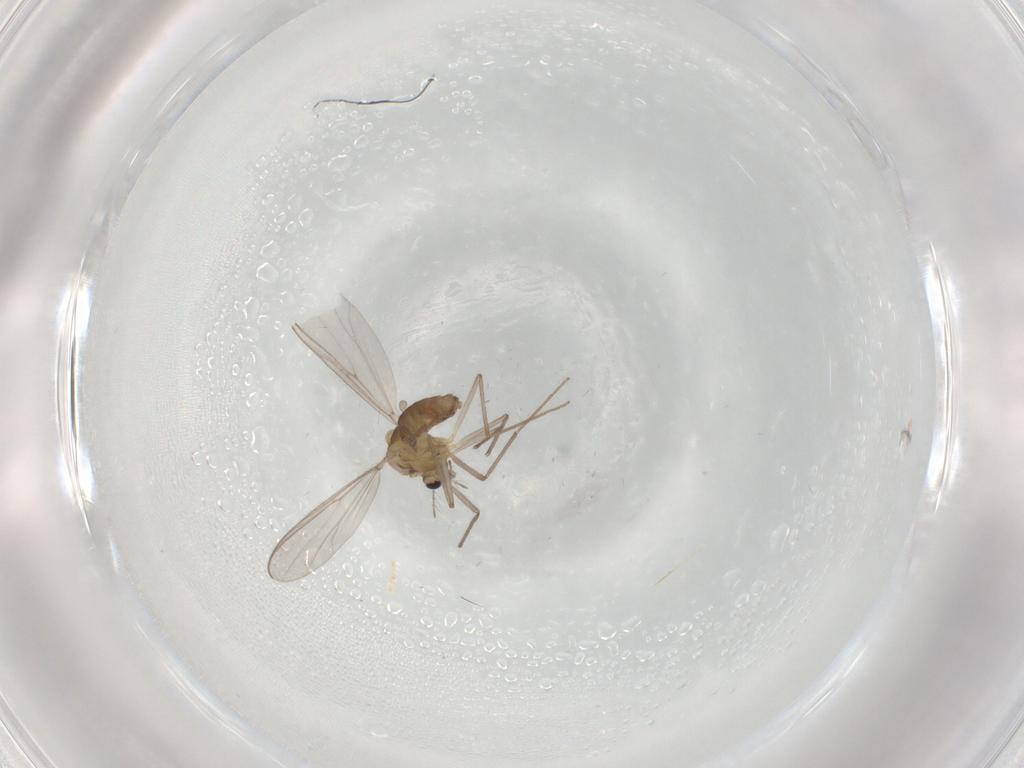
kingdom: Animalia
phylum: Arthropoda
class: Insecta
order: Diptera
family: Chironomidae
